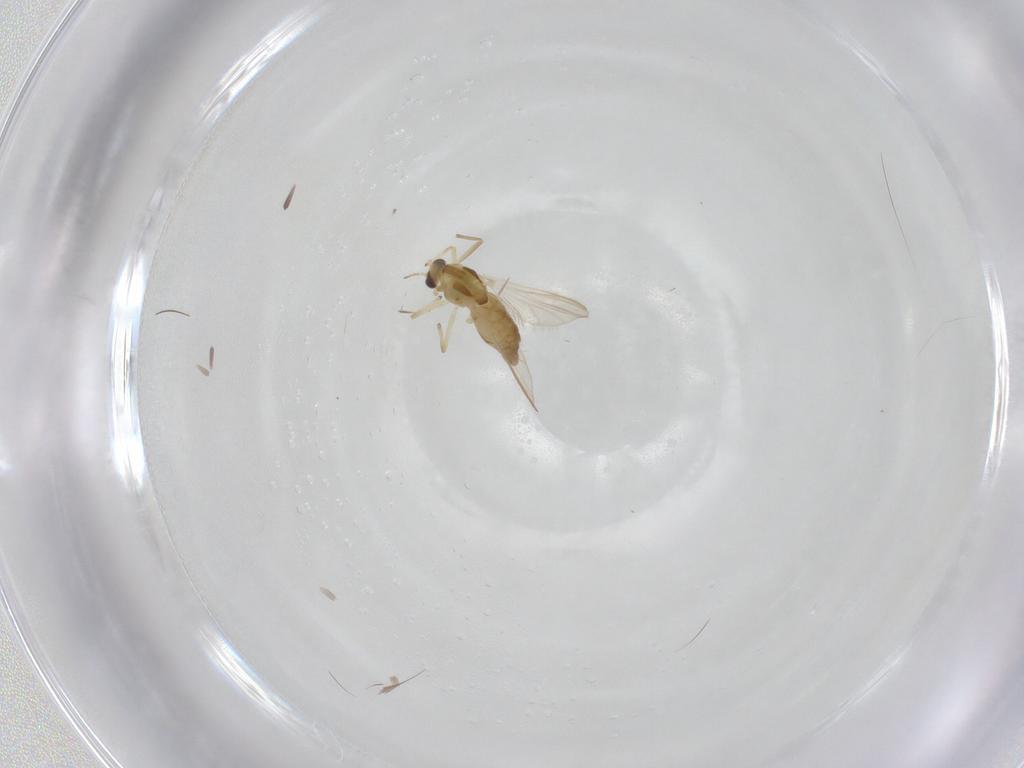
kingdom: Animalia
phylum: Arthropoda
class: Insecta
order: Diptera
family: Chironomidae
